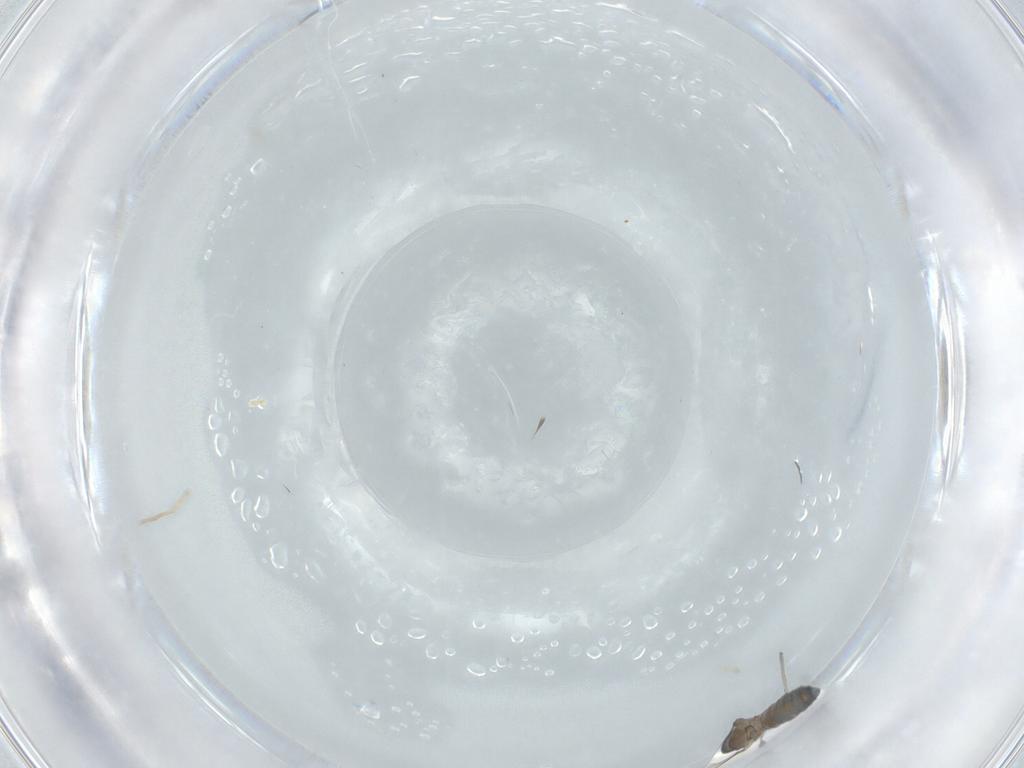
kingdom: Animalia
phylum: Arthropoda
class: Insecta
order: Diptera
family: Cecidomyiidae
